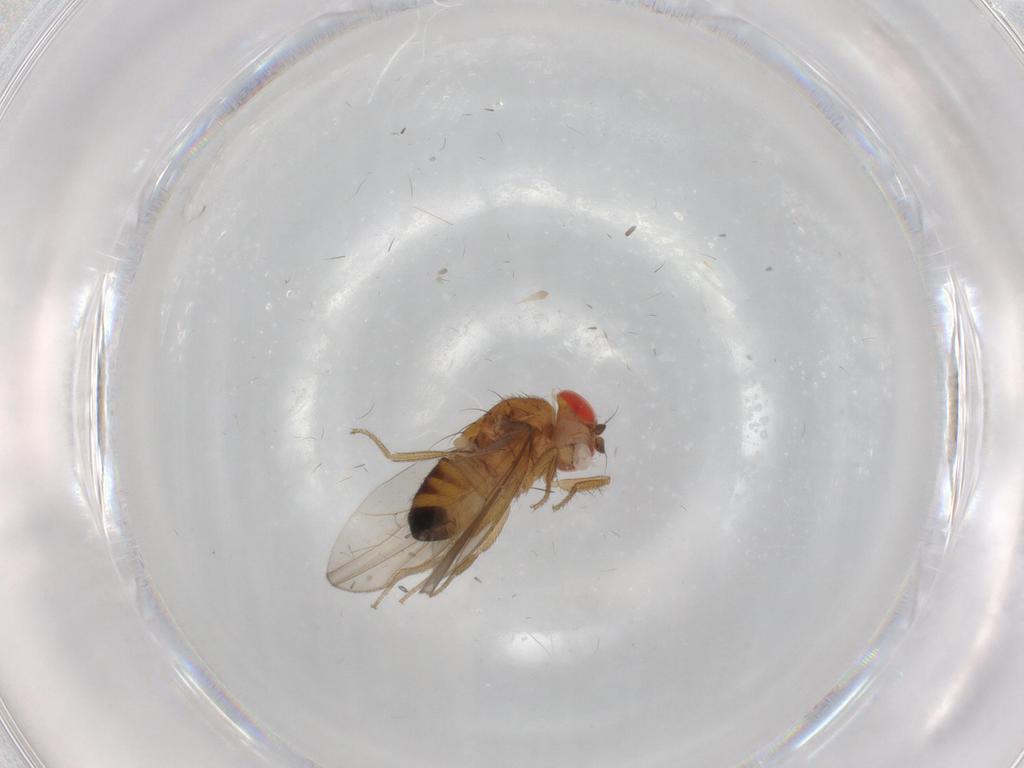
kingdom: Animalia
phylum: Arthropoda
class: Insecta
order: Diptera
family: Drosophilidae
